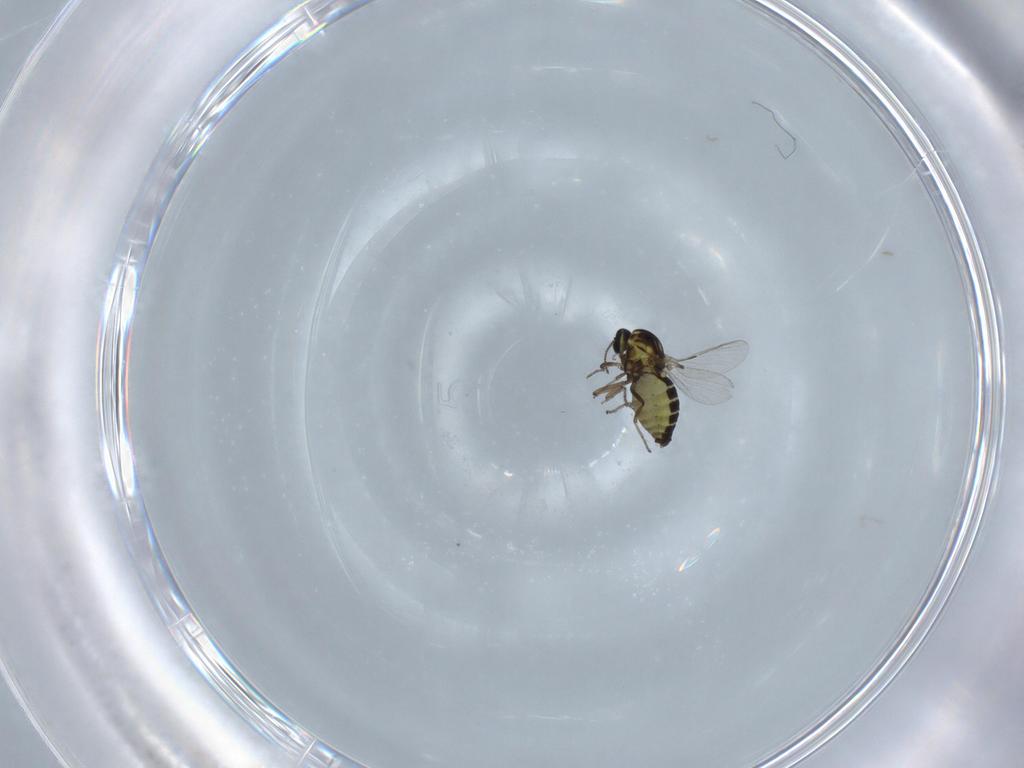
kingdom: Animalia
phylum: Arthropoda
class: Insecta
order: Diptera
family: Ceratopogonidae
